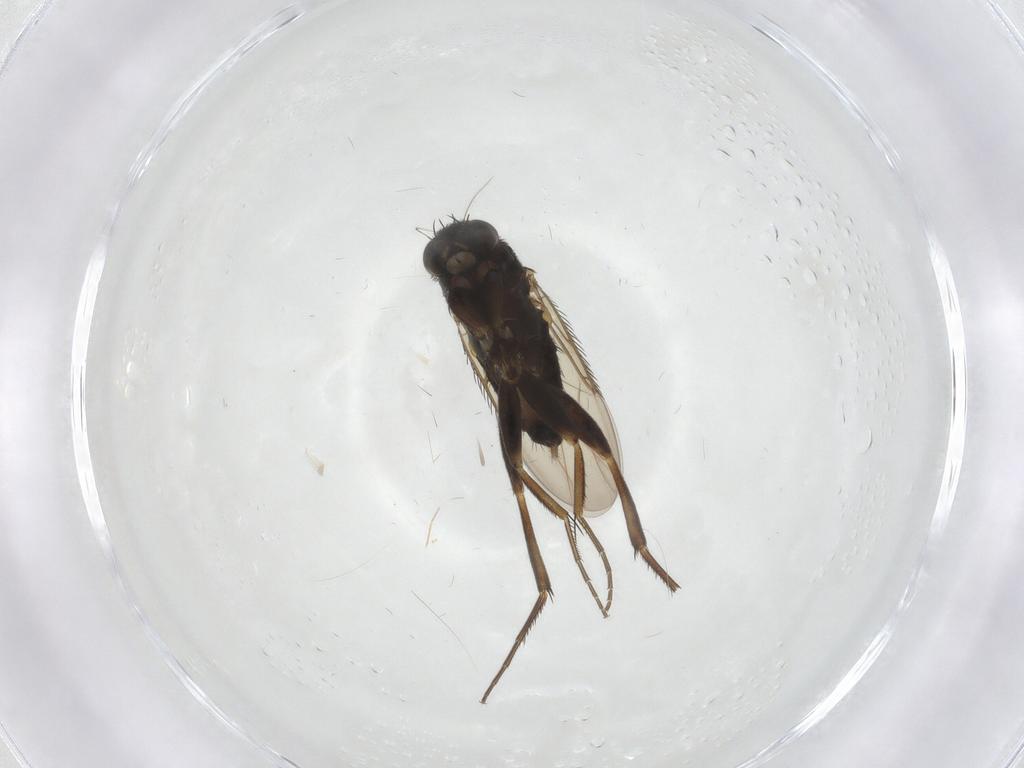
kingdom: Animalia
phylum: Arthropoda
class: Insecta
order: Diptera
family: Phoridae
